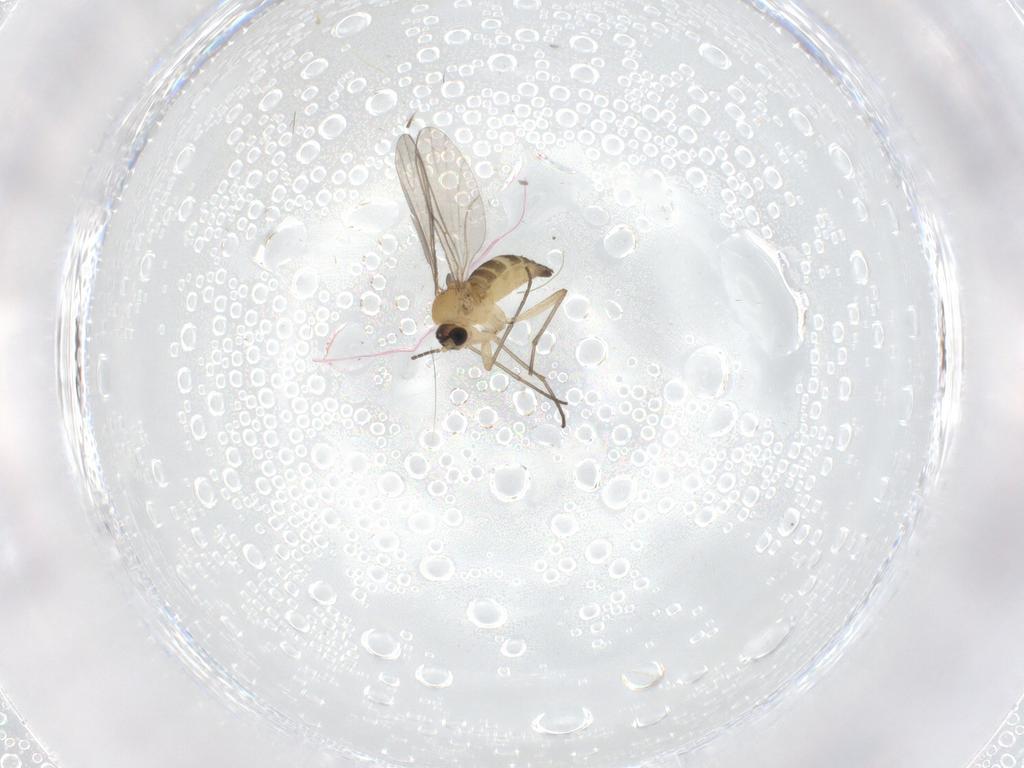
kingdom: Animalia
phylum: Arthropoda
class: Insecta
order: Diptera
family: Cecidomyiidae
